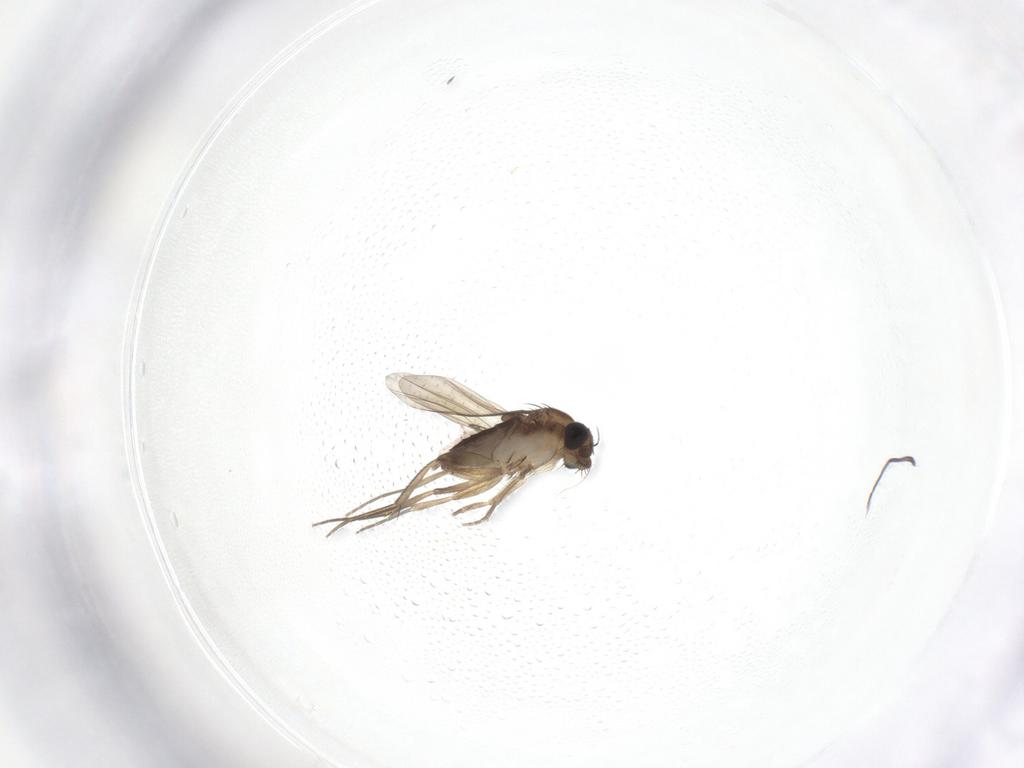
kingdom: Animalia
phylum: Arthropoda
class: Insecta
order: Diptera
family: Phoridae
